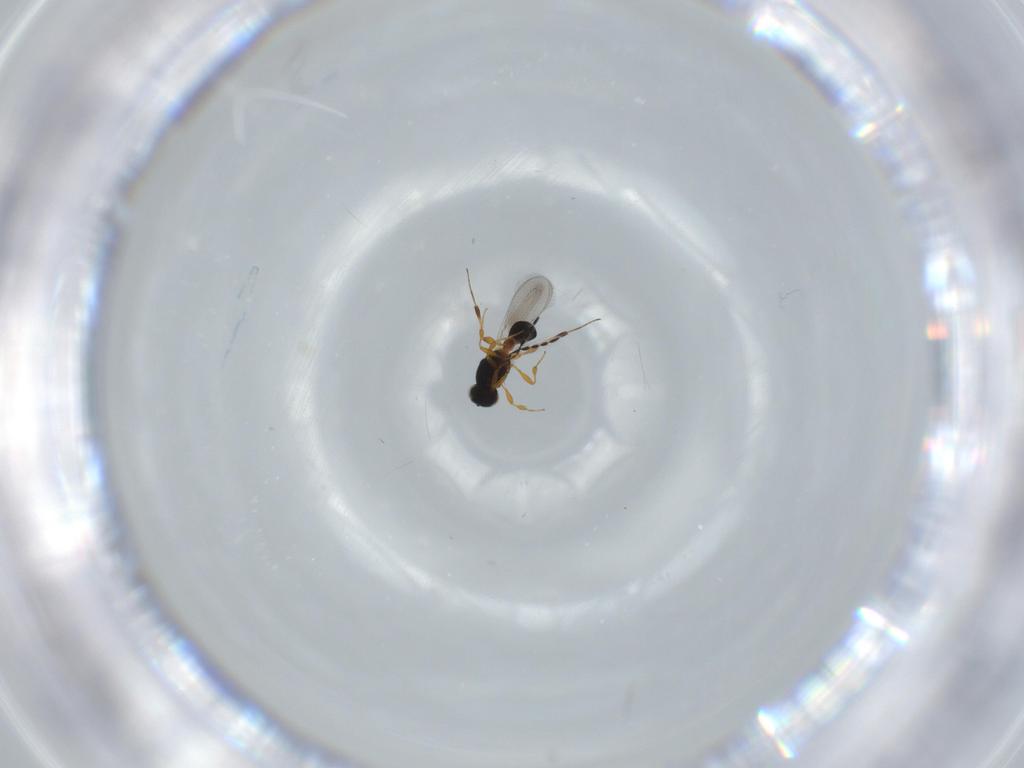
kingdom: Animalia
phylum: Arthropoda
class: Insecta
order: Hymenoptera
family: Platygastridae
